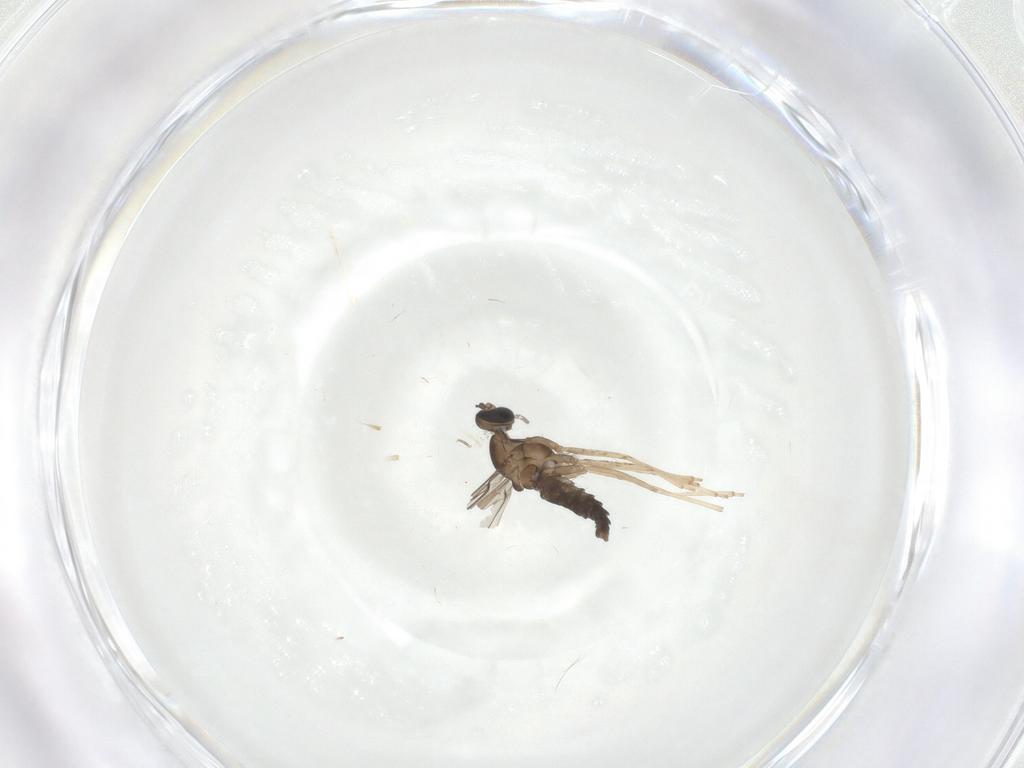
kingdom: Animalia
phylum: Arthropoda
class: Insecta
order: Diptera
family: Cecidomyiidae
